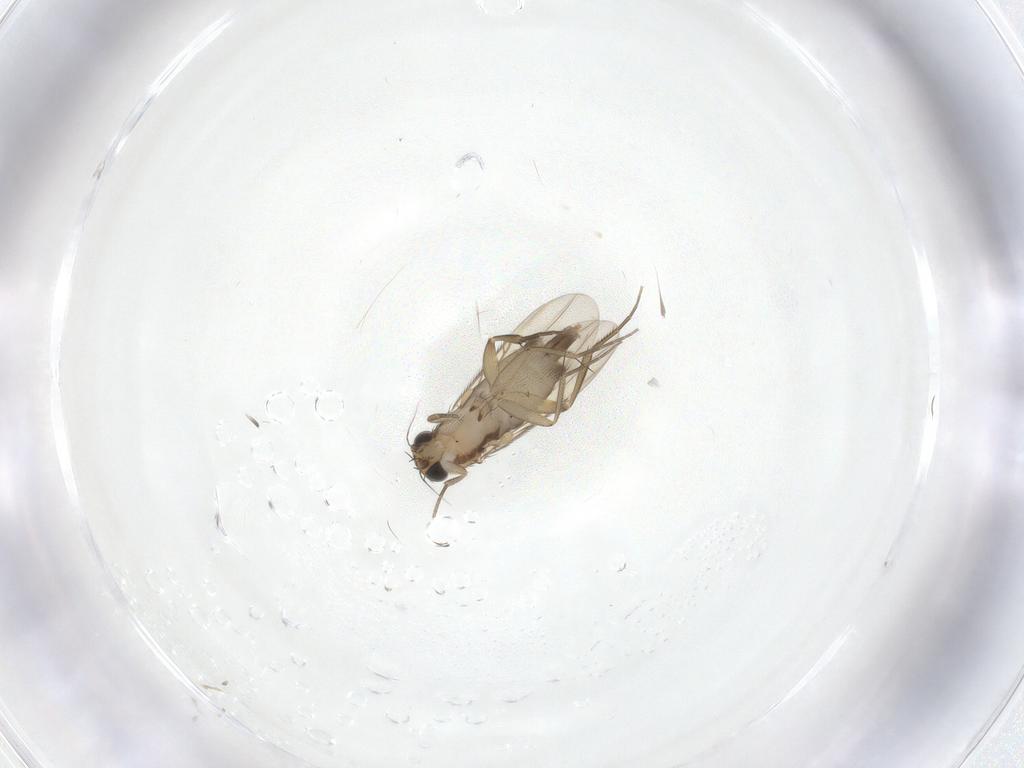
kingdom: Animalia
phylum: Arthropoda
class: Insecta
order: Diptera
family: Phoridae
